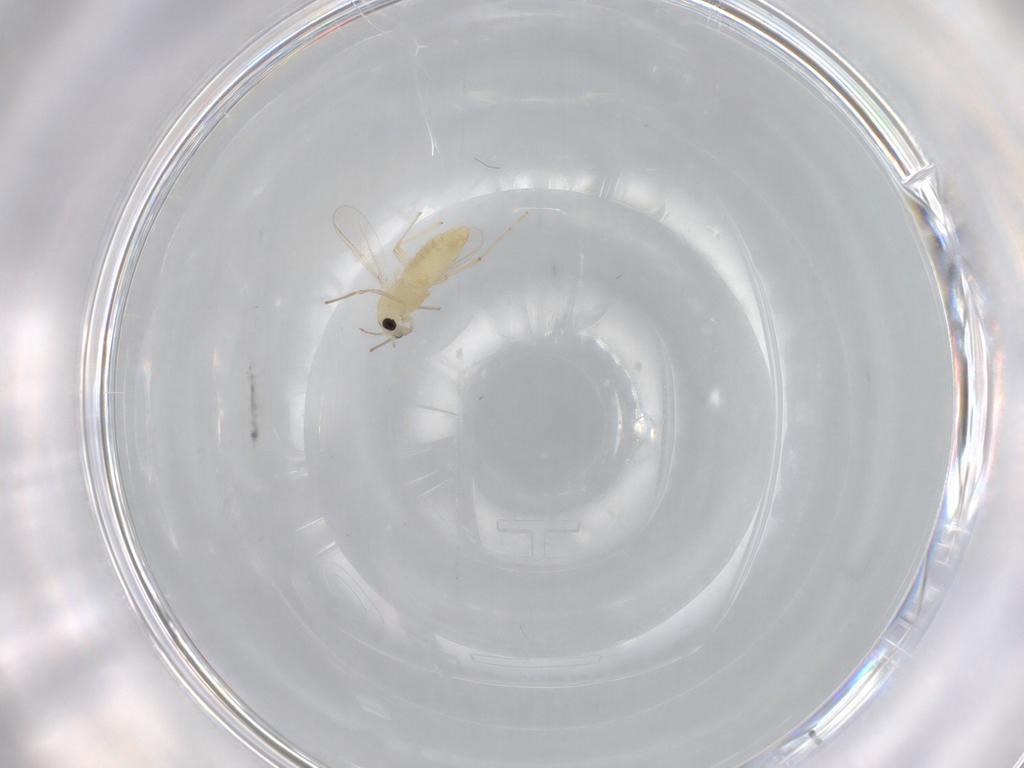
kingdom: Animalia
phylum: Arthropoda
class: Insecta
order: Diptera
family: Chironomidae
